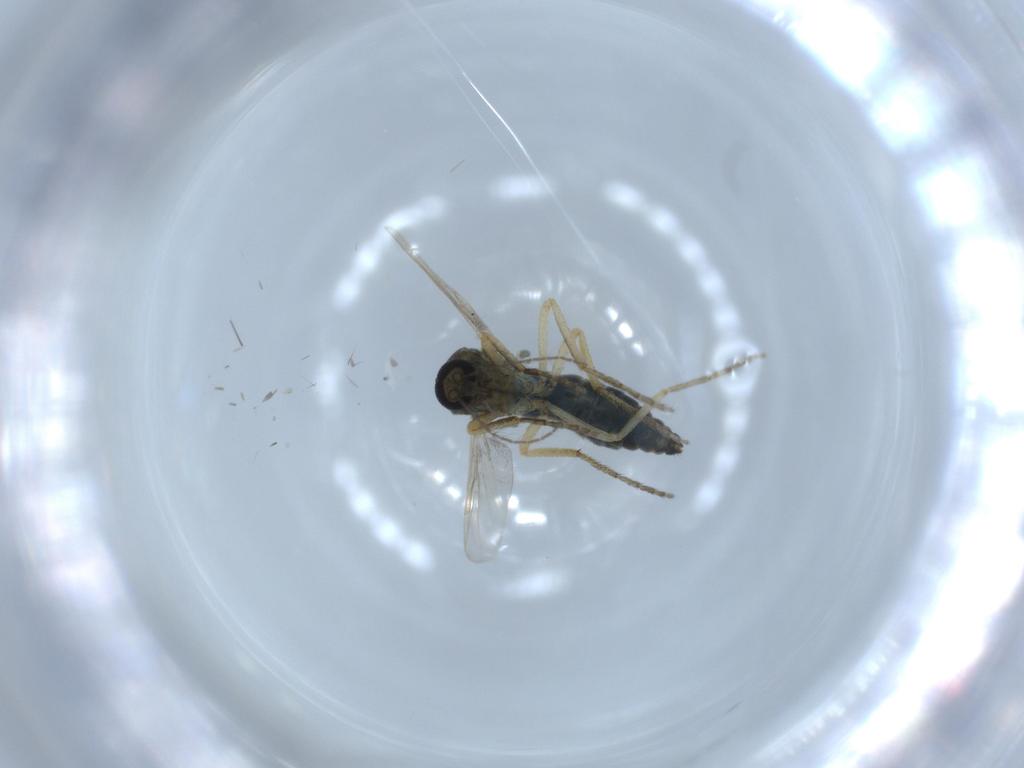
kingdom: Animalia
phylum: Arthropoda
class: Insecta
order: Diptera
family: Ceratopogonidae
